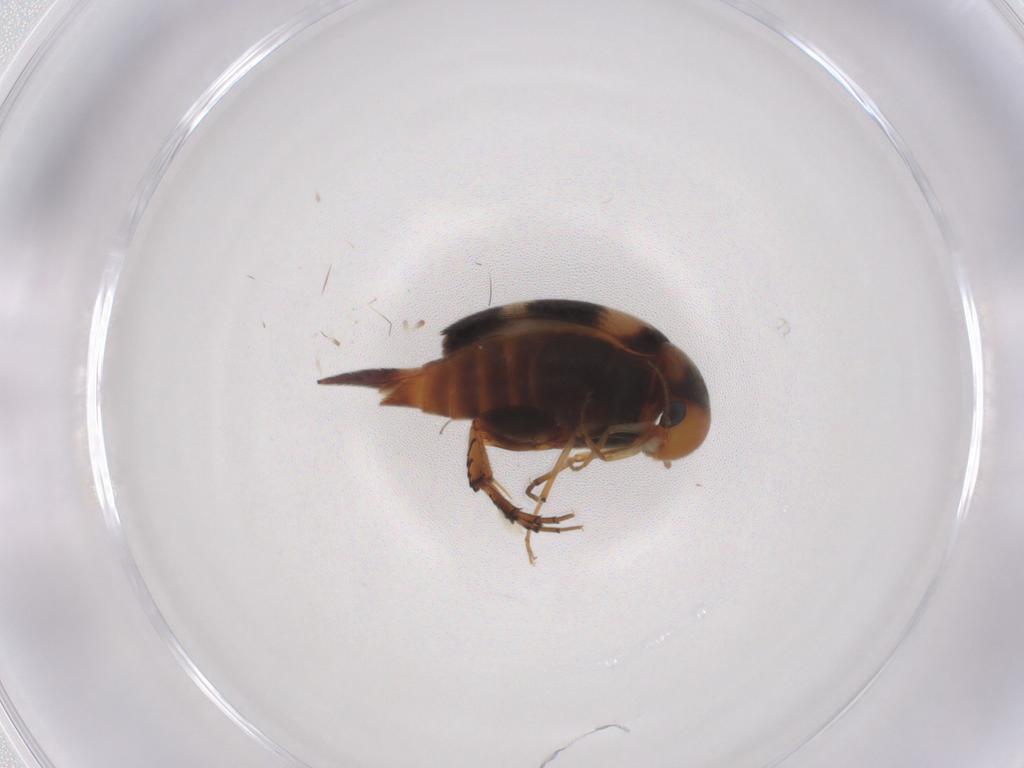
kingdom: Animalia
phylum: Arthropoda
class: Insecta
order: Coleoptera
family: Mordellidae
